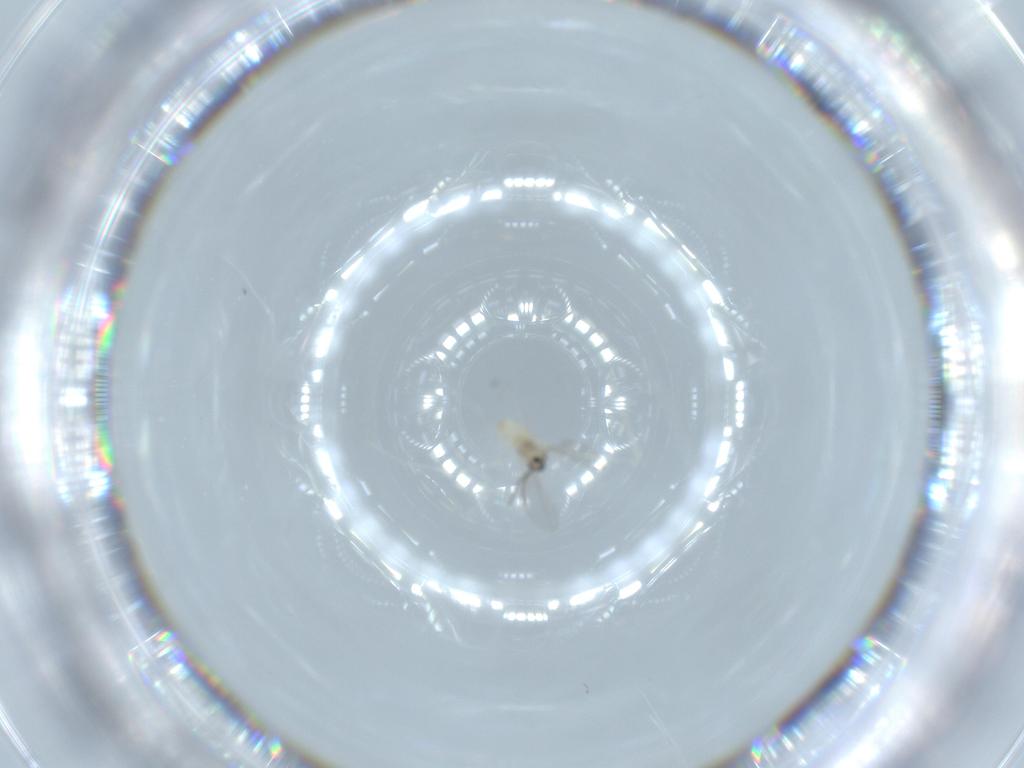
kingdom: Animalia
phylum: Arthropoda
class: Insecta
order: Diptera
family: Cecidomyiidae
